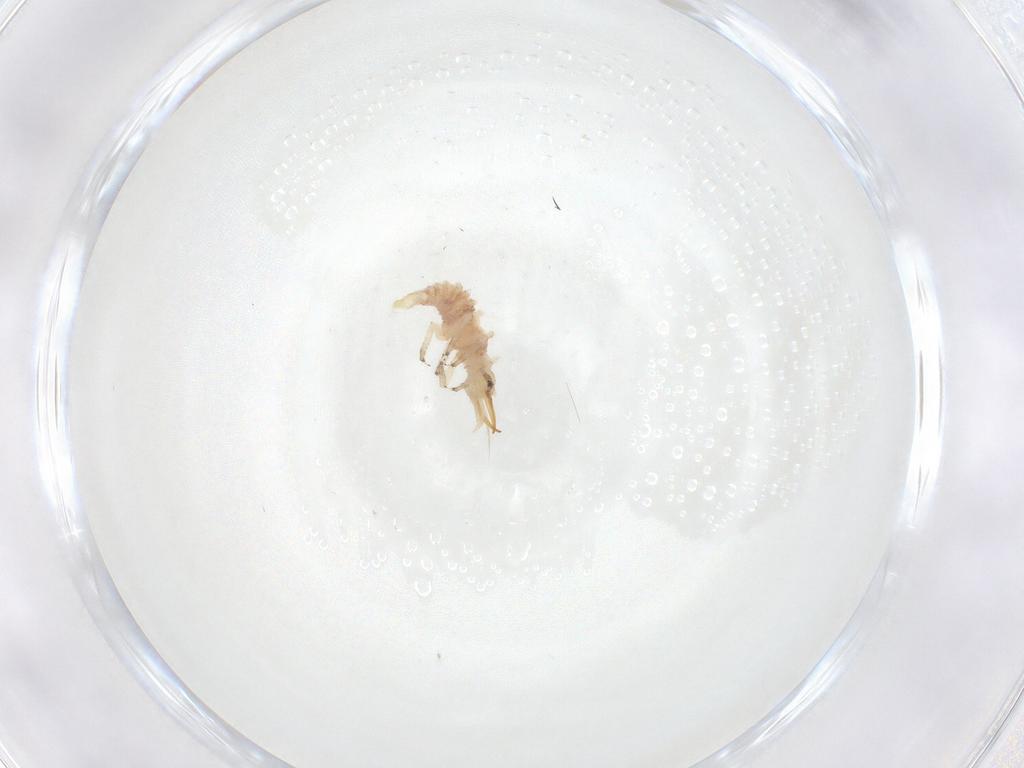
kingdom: Animalia
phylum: Arthropoda
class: Insecta
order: Neuroptera
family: Chrysopidae
